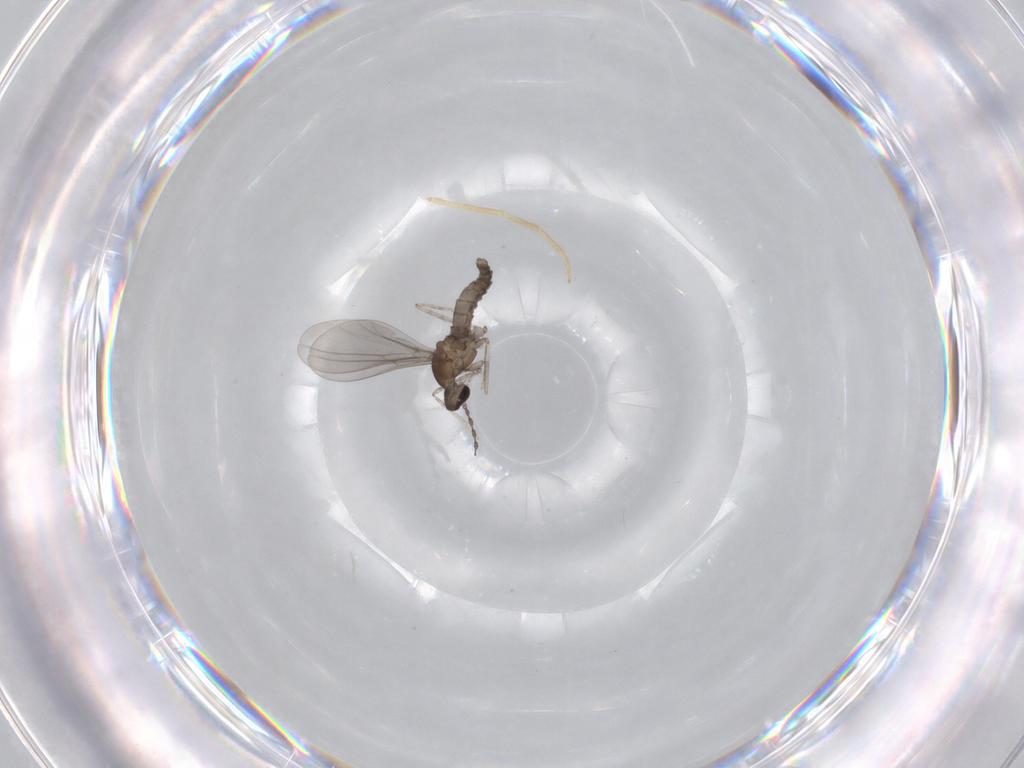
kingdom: Animalia
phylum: Arthropoda
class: Insecta
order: Diptera
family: Cecidomyiidae
